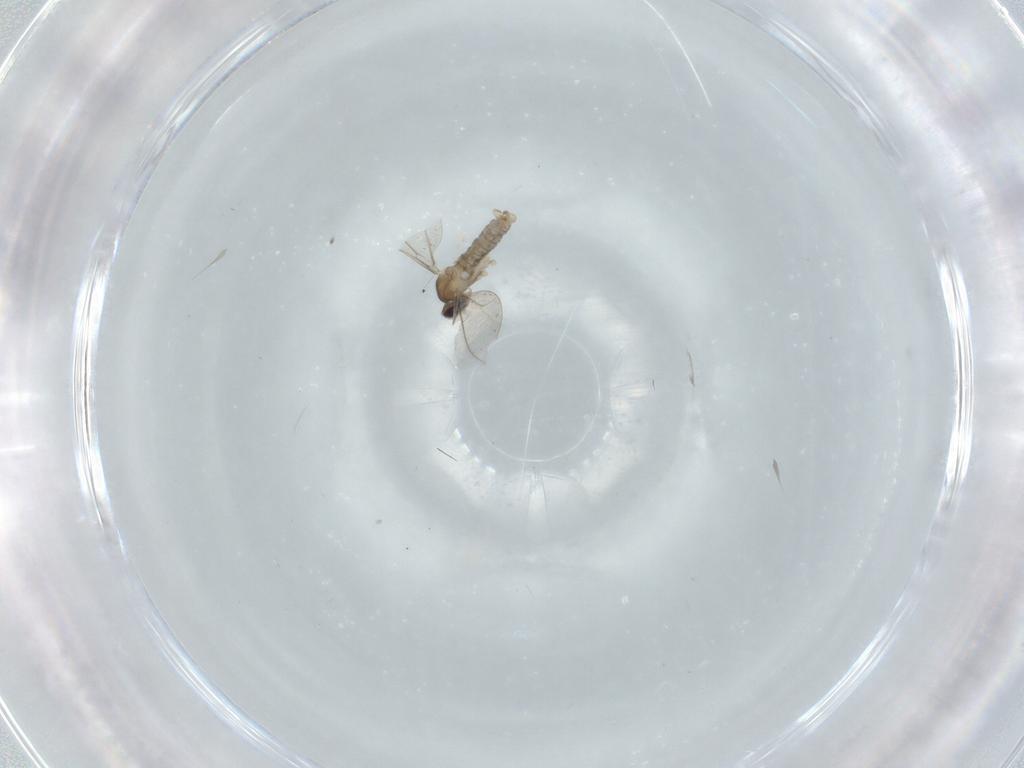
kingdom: Animalia
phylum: Arthropoda
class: Insecta
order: Diptera
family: Cecidomyiidae
